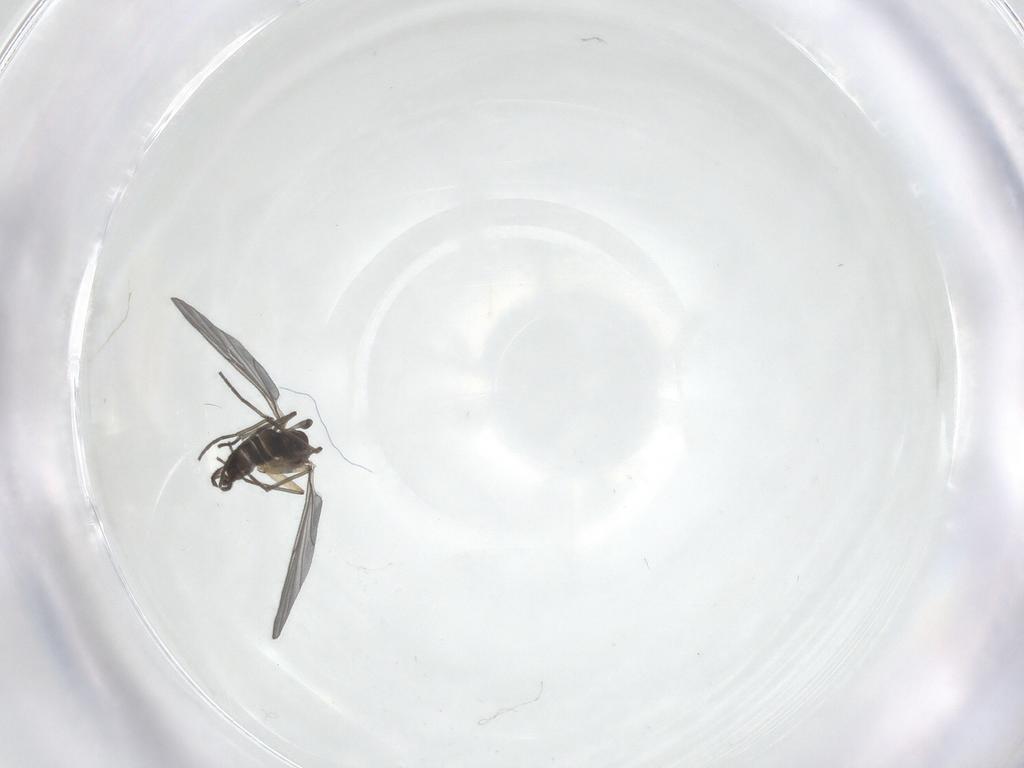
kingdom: Animalia
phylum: Arthropoda
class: Insecta
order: Diptera
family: Sciaridae
